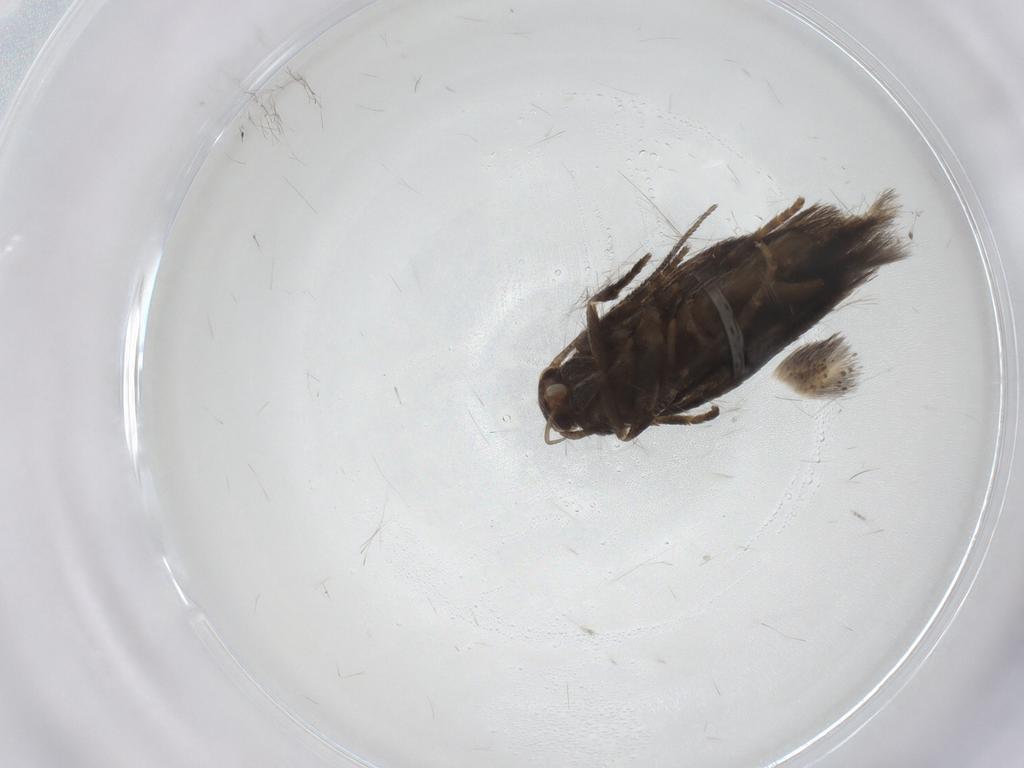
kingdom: Animalia
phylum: Arthropoda
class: Insecta
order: Lepidoptera
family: Elachistidae
